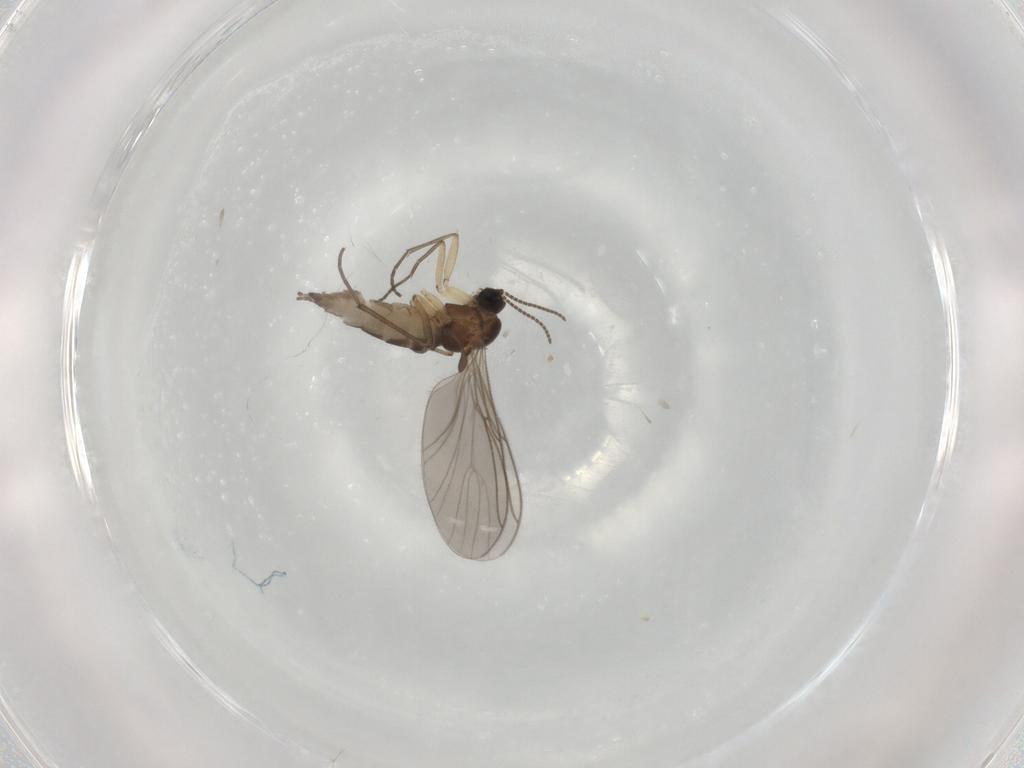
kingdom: Animalia
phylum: Arthropoda
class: Insecta
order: Diptera
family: Sciaridae
